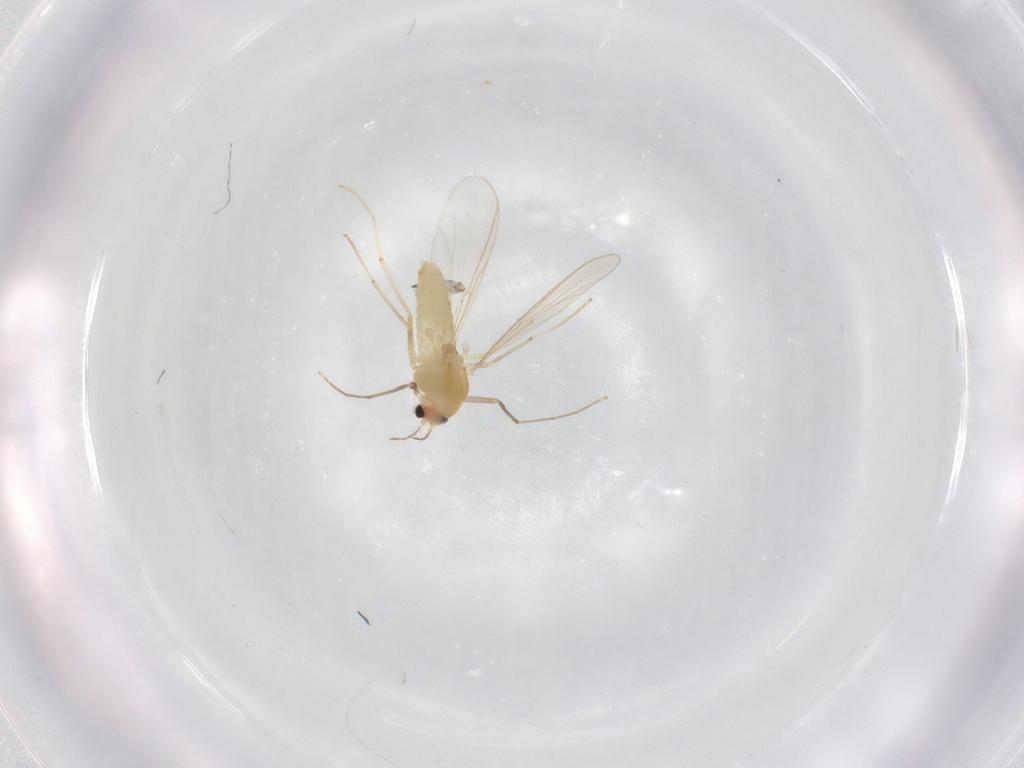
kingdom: Animalia
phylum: Arthropoda
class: Insecta
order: Diptera
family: Chironomidae
